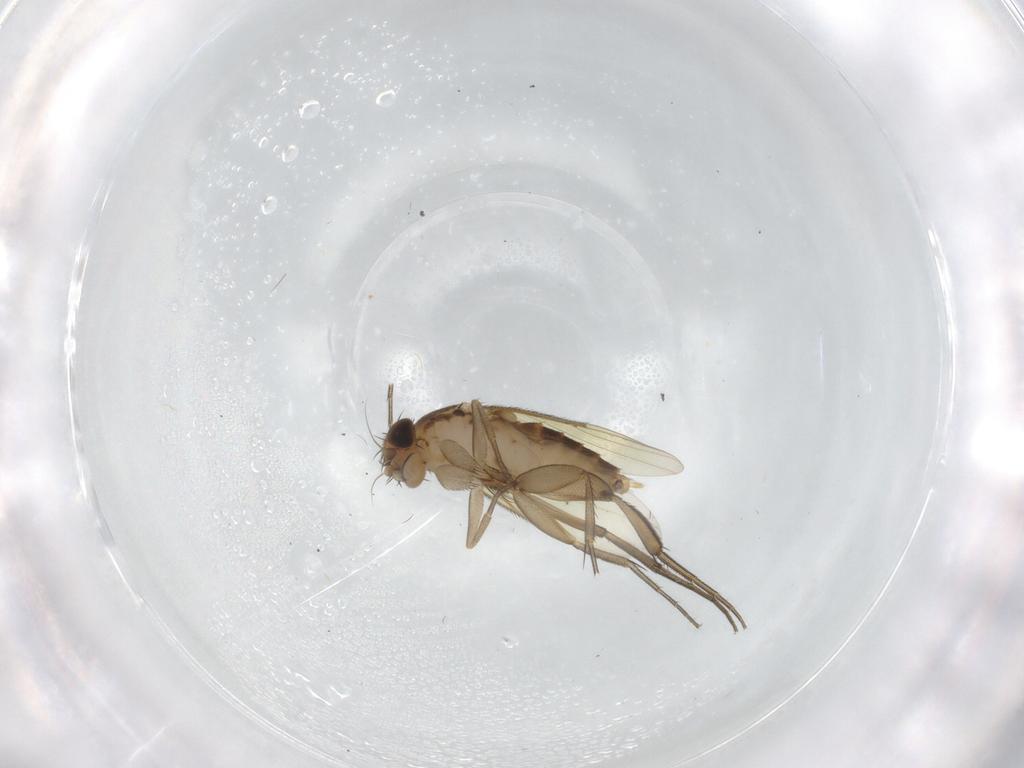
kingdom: Animalia
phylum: Arthropoda
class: Insecta
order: Diptera
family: Phoridae
